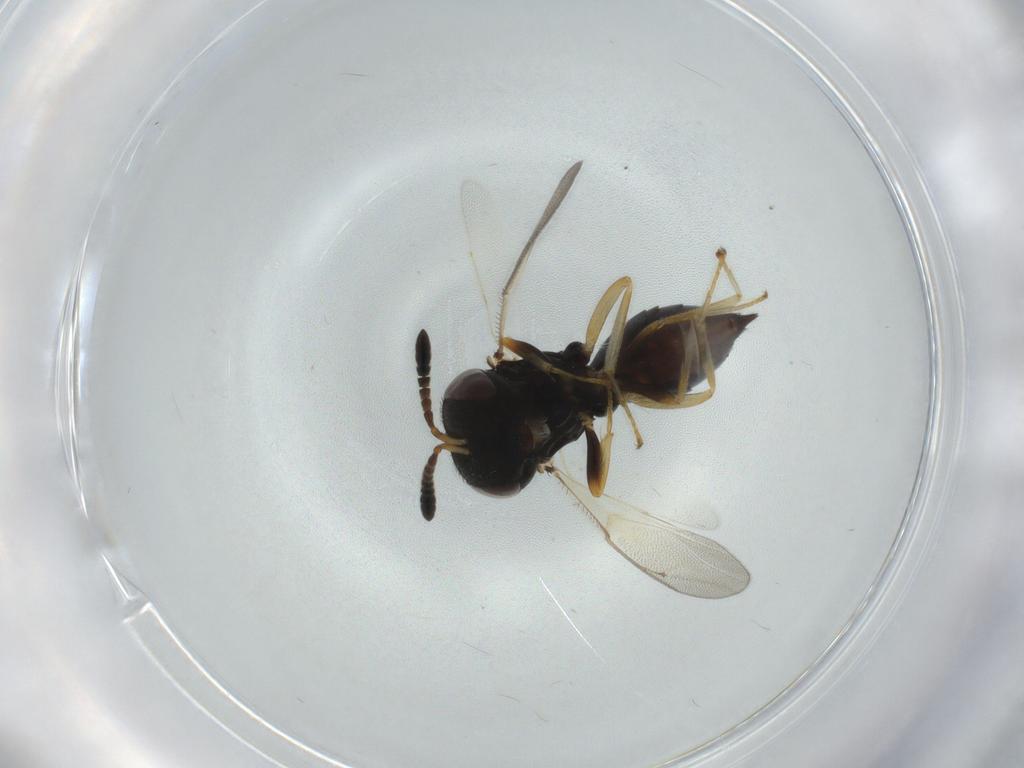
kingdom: Animalia
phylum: Arthropoda
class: Insecta
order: Hymenoptera
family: Pteromalidae
